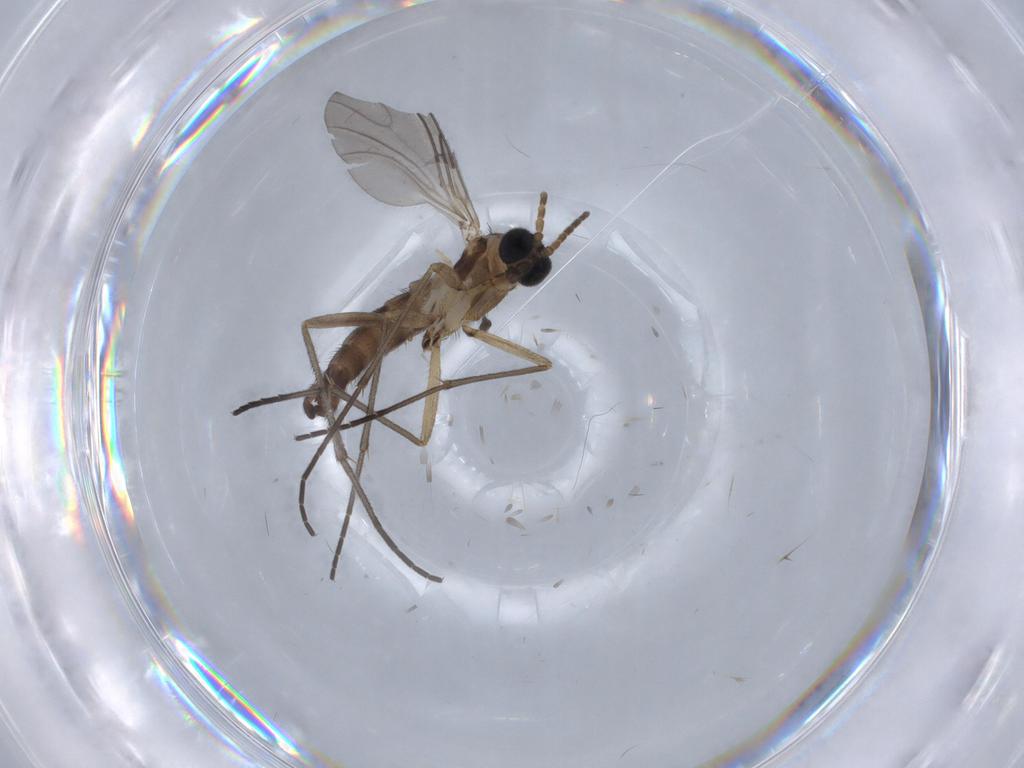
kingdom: Animalia
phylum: Arthropoda
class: Insecta
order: Diptera
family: Sciaridae
